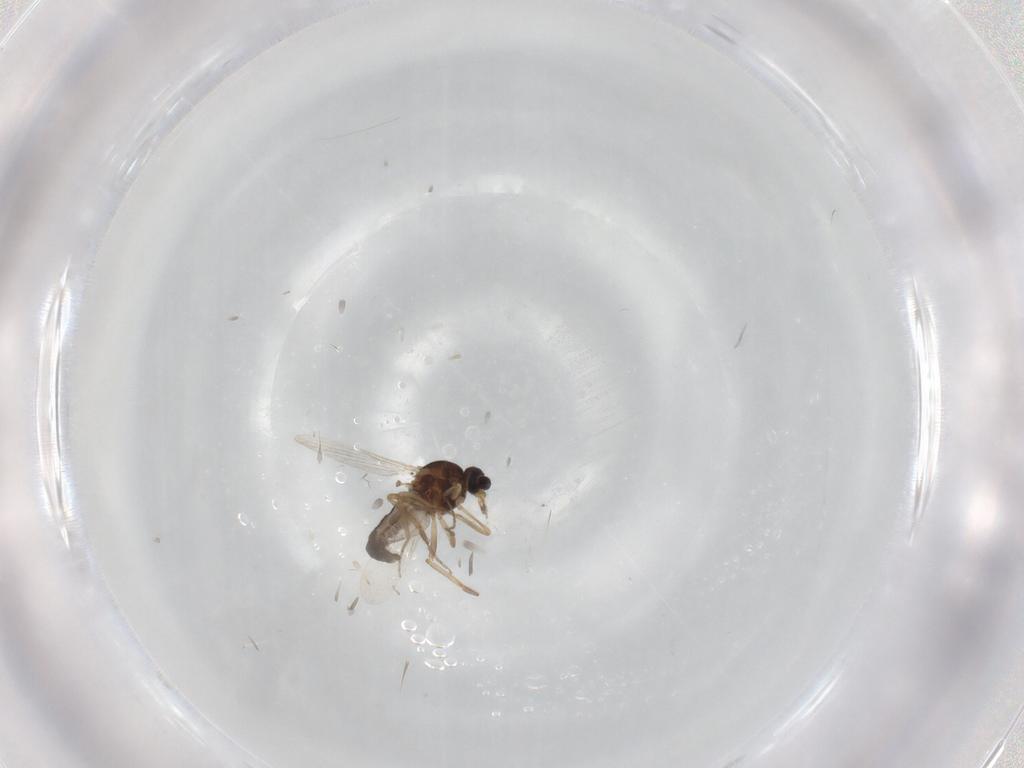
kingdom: Animalia
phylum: Arthropoda
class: Insecta
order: Diptera
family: Ceratopogonidae
